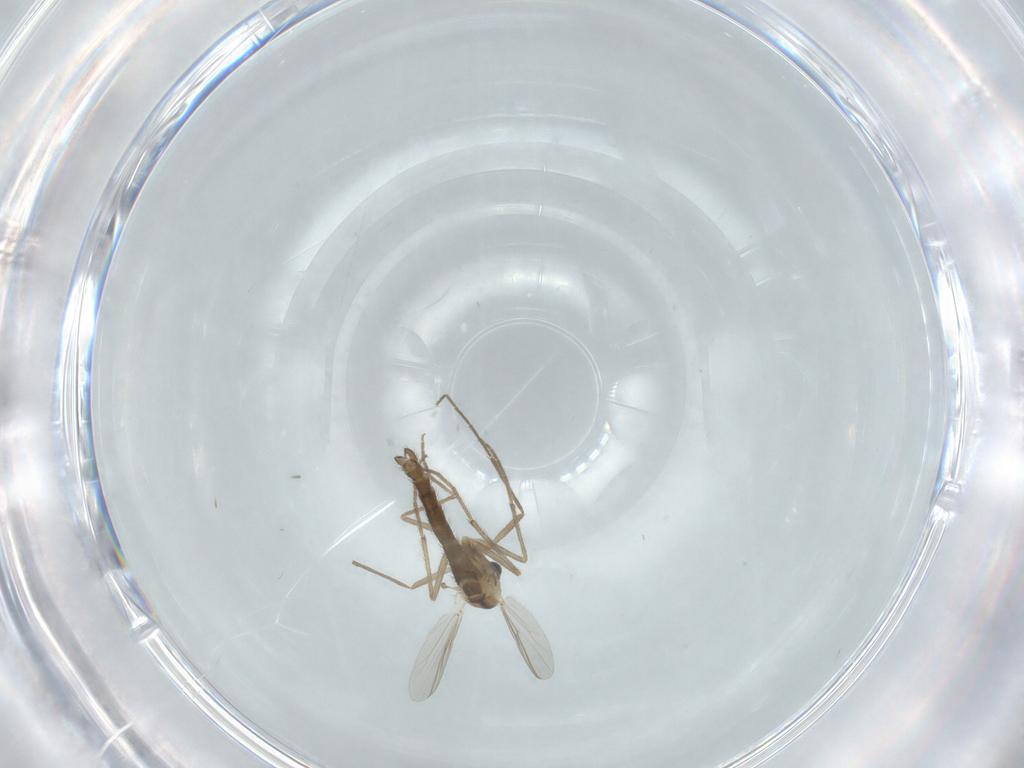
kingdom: Animalia
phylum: Arthropoda
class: Insecta
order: Diptera
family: Chironomidae
